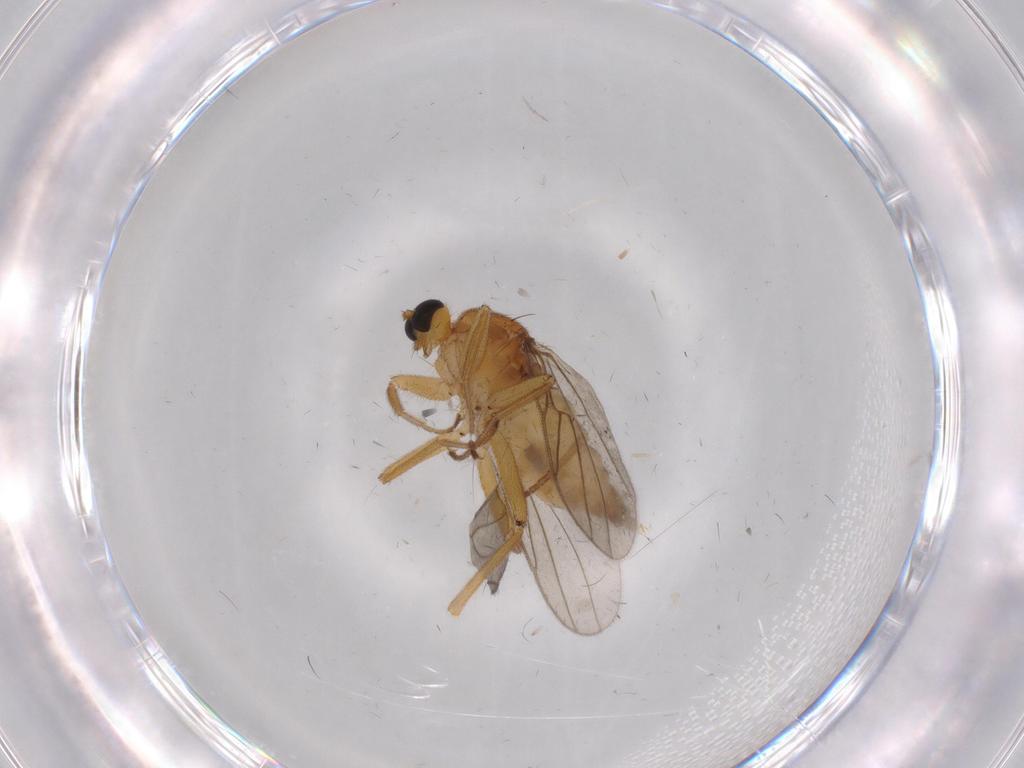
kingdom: Animalia
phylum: Arthropoda
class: Insecta
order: Diptera
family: Hybotidae
